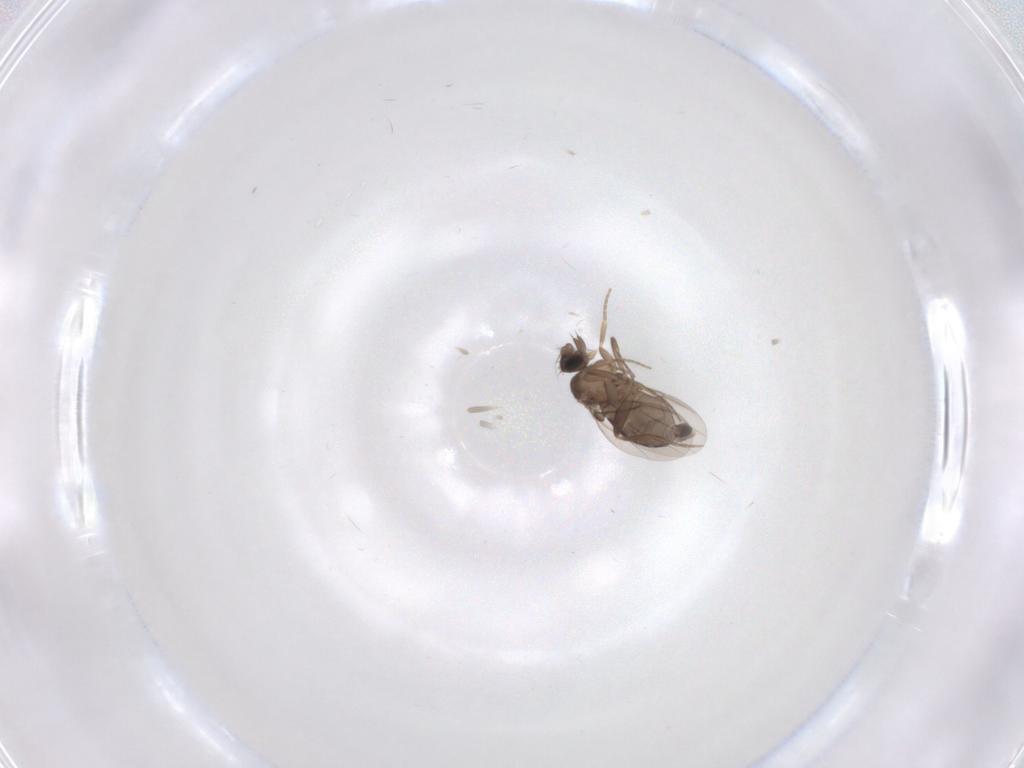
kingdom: Animalia
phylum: Arthropoda
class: Insecta
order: Diptera
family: Phoridae
